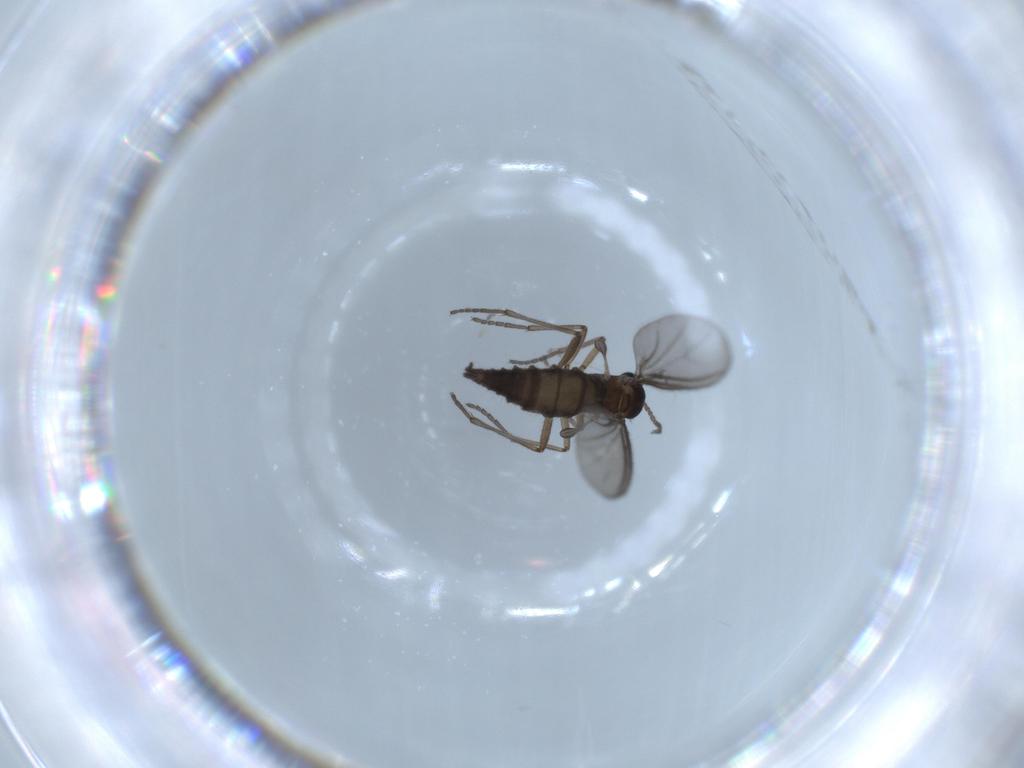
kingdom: Animalia
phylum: Arthropoda
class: Insecta
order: Diptera
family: Sciaridae
